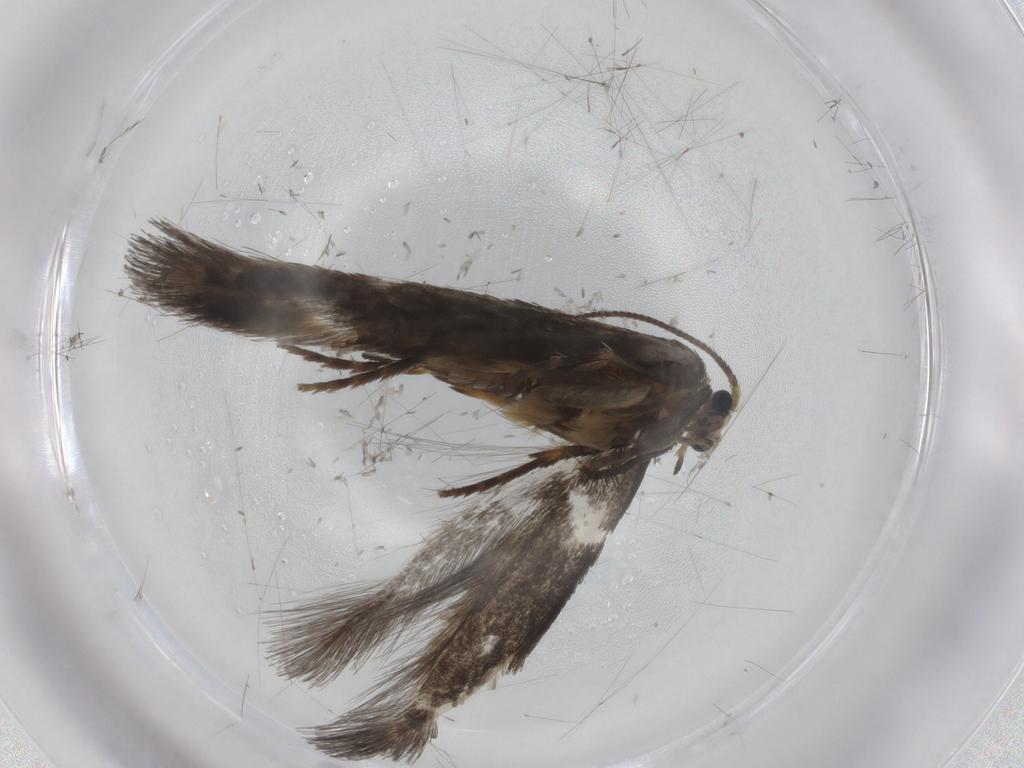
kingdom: Animalia
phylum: Arthropoda
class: Insecta
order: Lepidoptera
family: Nepticulidae
